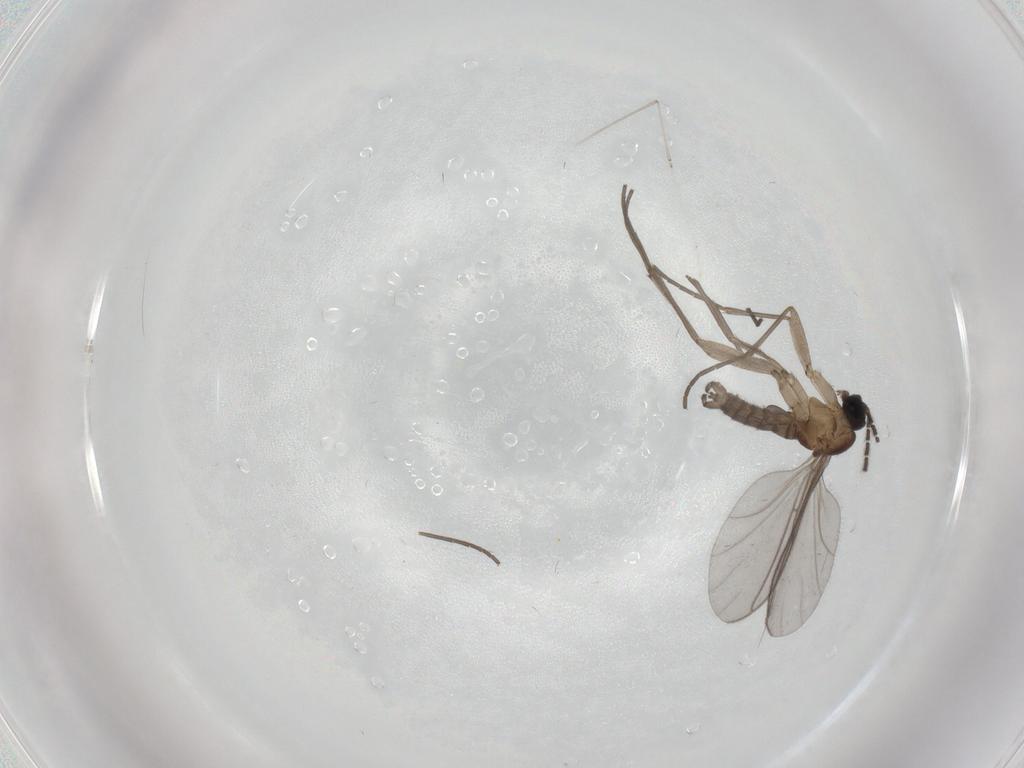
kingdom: Animalia
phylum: Arthropoda
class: Insecta
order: Diptera
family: Sciaridae
